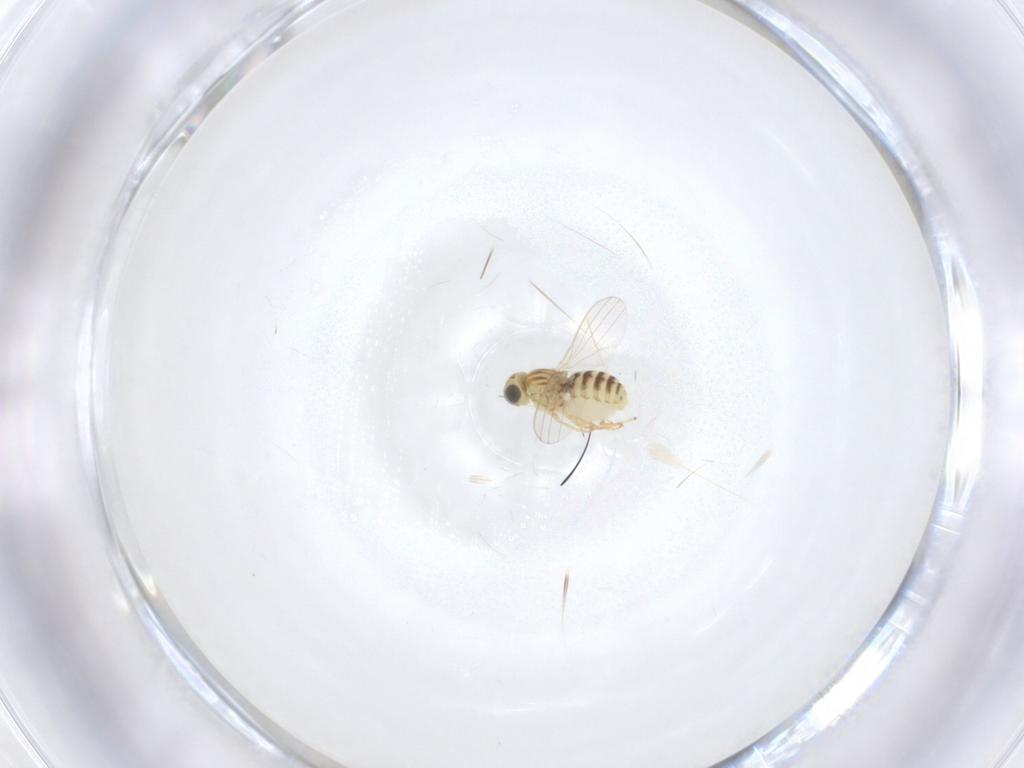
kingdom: Animalia
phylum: Arthropoda
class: Insecta
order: Diptera
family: Chyromyidae
